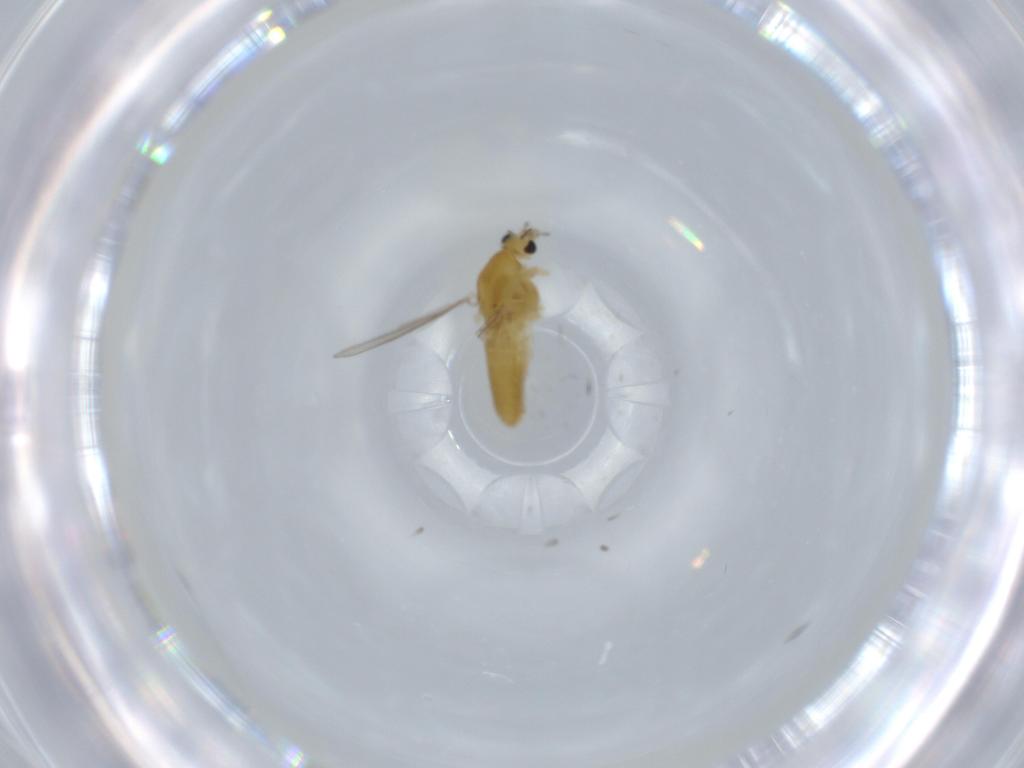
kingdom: Animalia
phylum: Arthropoda
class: Insecta
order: Diptera
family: Chironomidae
